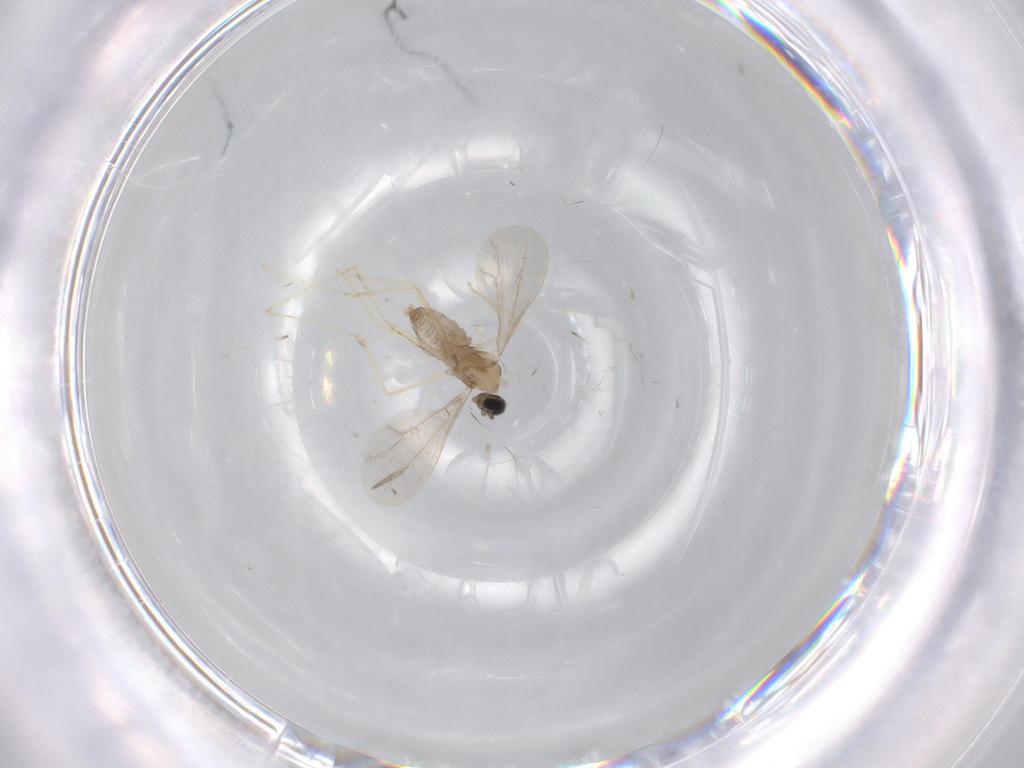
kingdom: Animalia
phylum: Arthropoda
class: Insecta
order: Diptera
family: Cecidomyiidae
